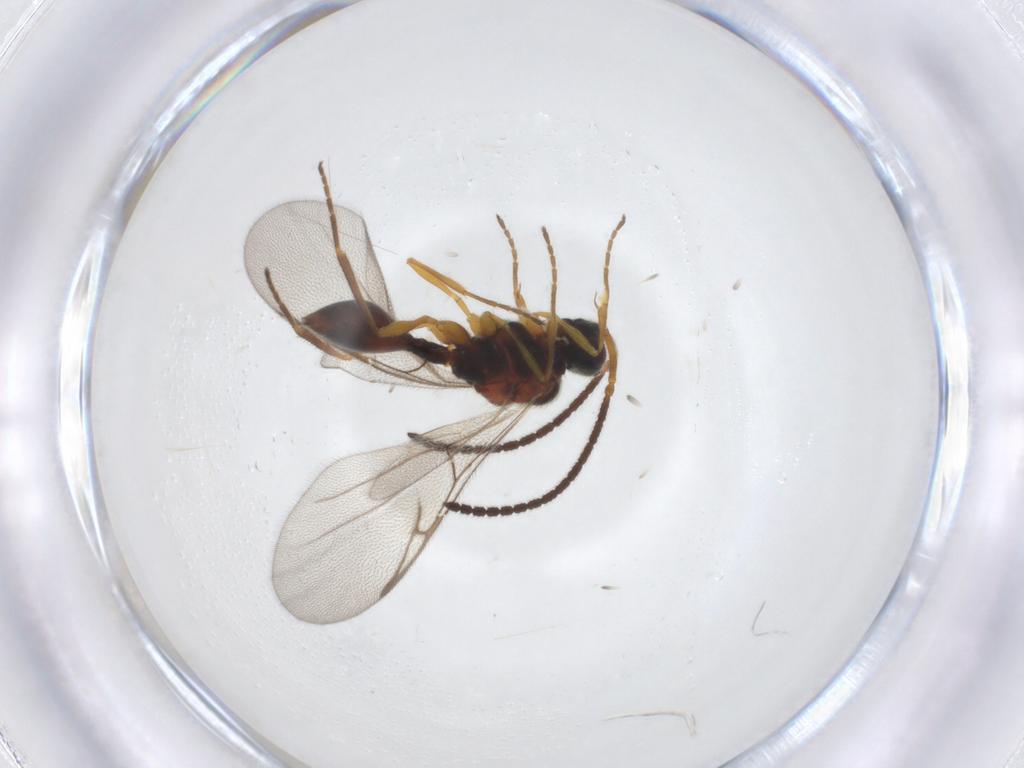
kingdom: Animalia
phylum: Arthropoda
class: Insecta
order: Hymenoptera
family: Diapriidae
